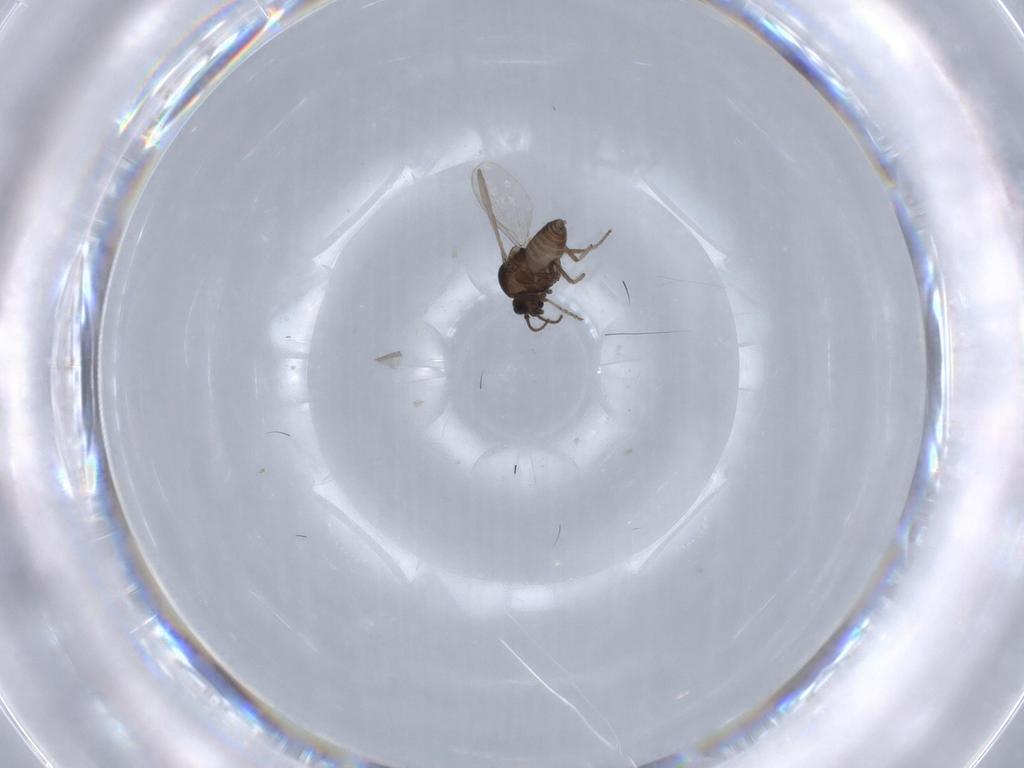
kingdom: Animalia
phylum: Arthropoda
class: Insecta
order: Diptera
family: Ceratopogonidae
